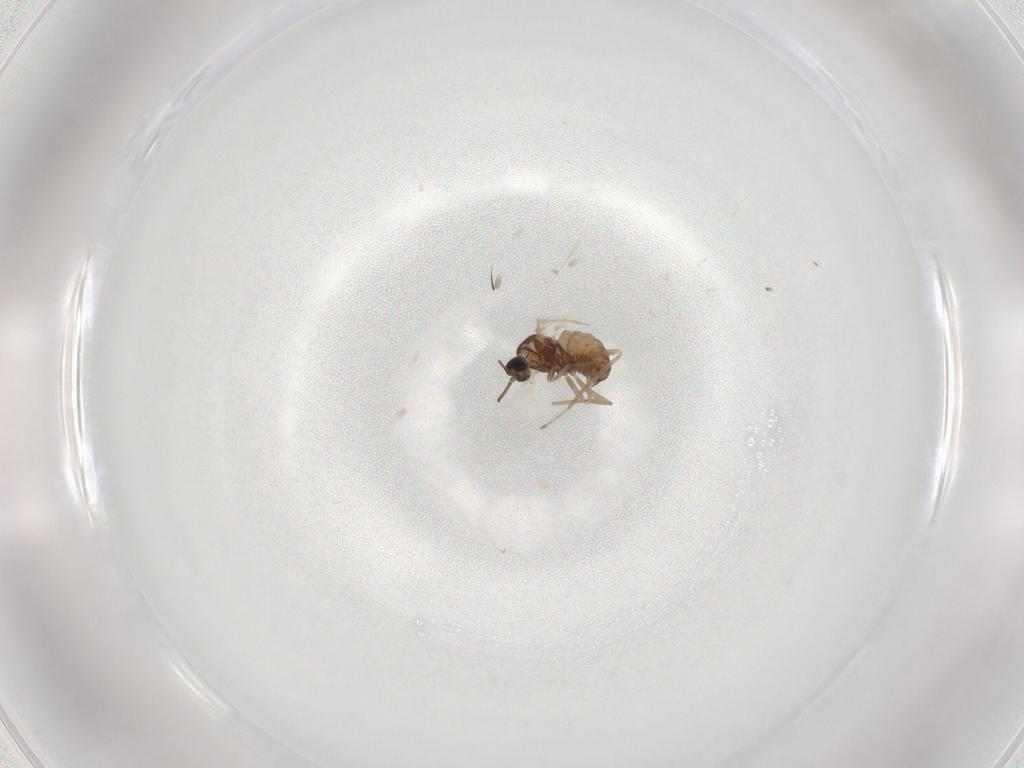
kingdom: Animalia
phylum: Arthropoda
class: Insecta
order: Diptera
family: Cecidomyiidae
